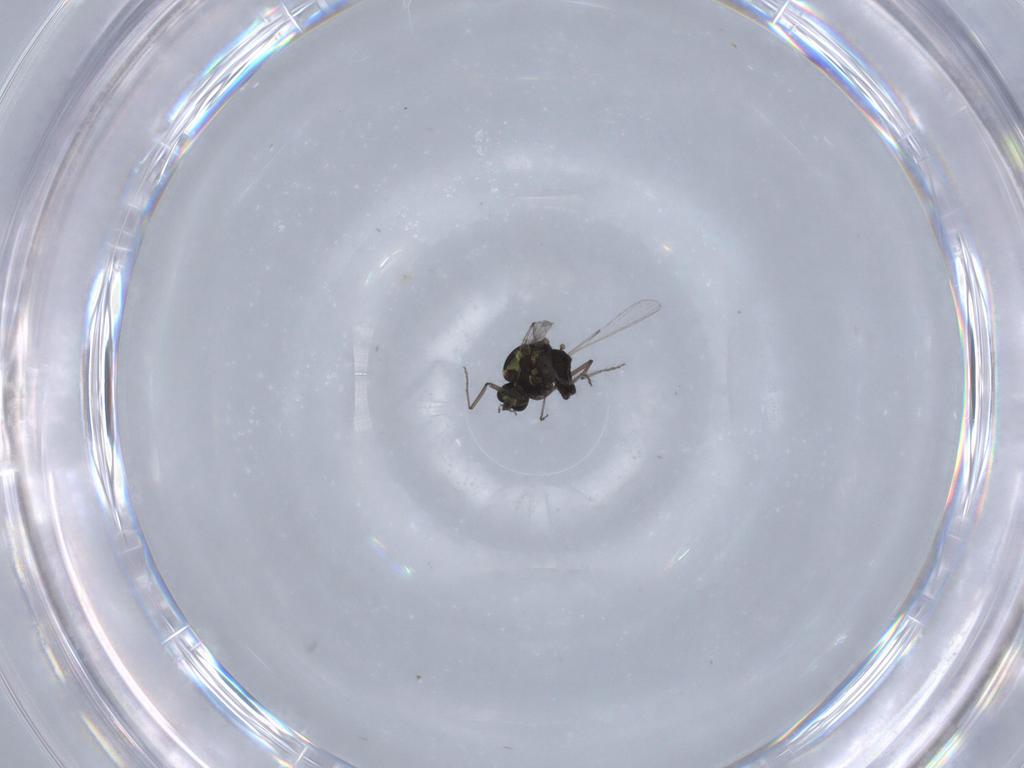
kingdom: Animalia
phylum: Arthropoda
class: Insecta
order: Diptera
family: Ceratopogonidae
